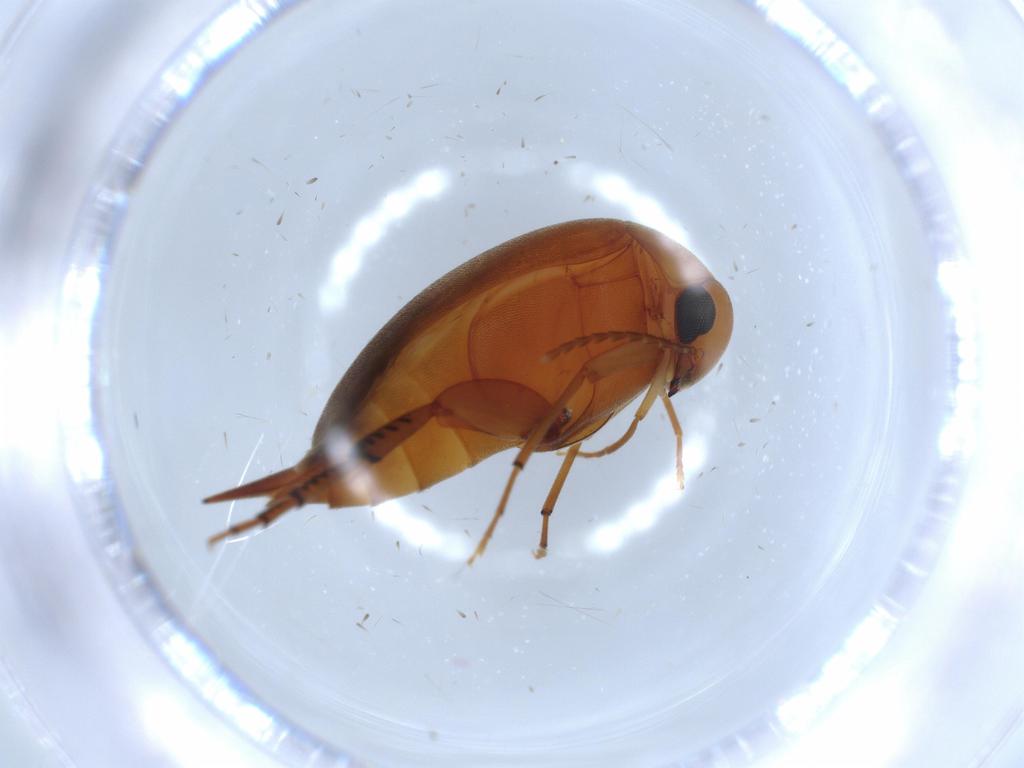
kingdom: Animalia
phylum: Arthropoda
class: Insecta
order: Coleoptera
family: Mordellidae
